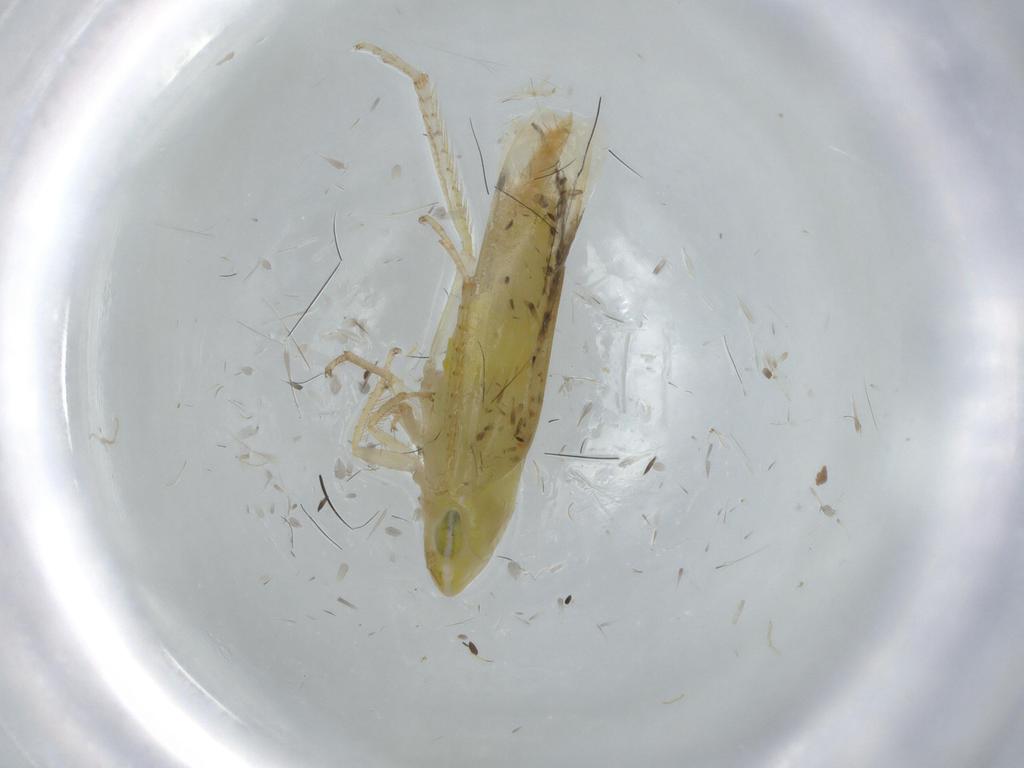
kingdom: Animalia
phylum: Arthropoda
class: Insecta
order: Hemiptera
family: Cicadellidae
